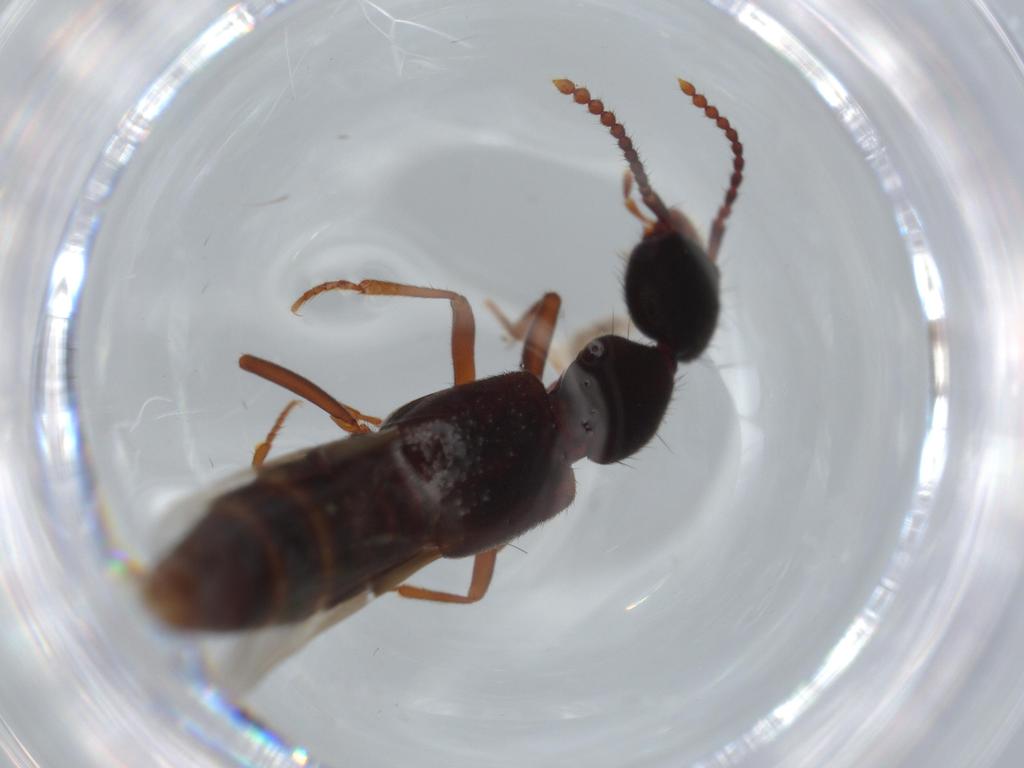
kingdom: Animalia
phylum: Arthropoda
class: Insecta
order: Coleoptera
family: Staphylinidae
